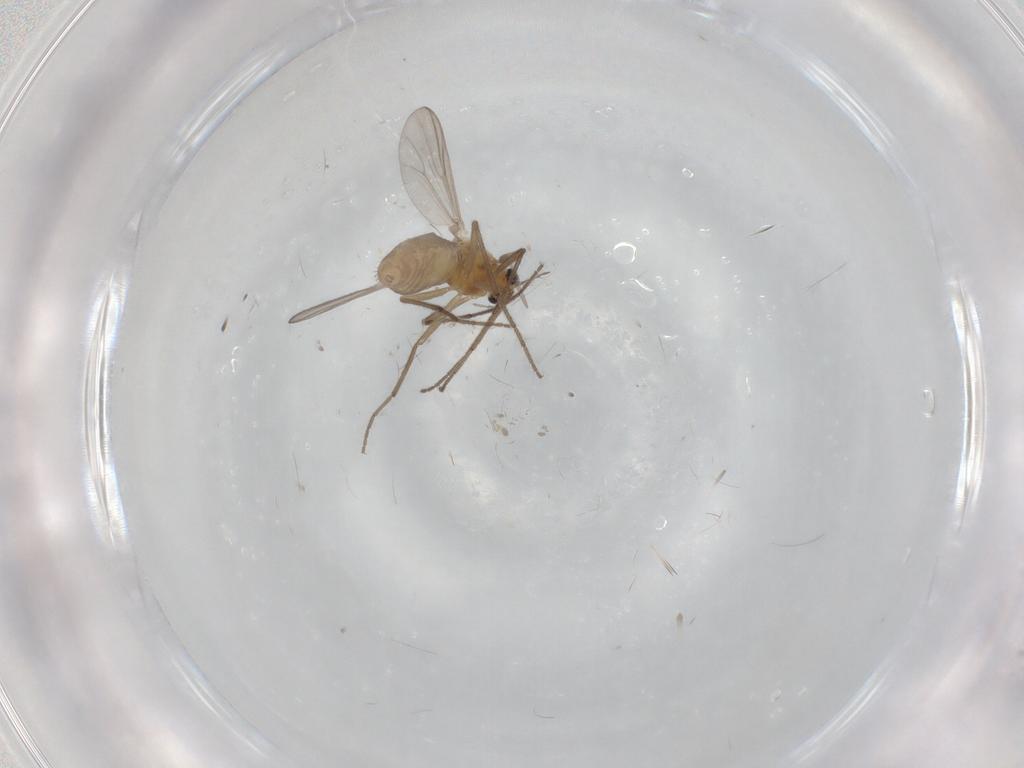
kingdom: Animalia
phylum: Arthropoda
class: Insecta
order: Diptera
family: Chironomidae
